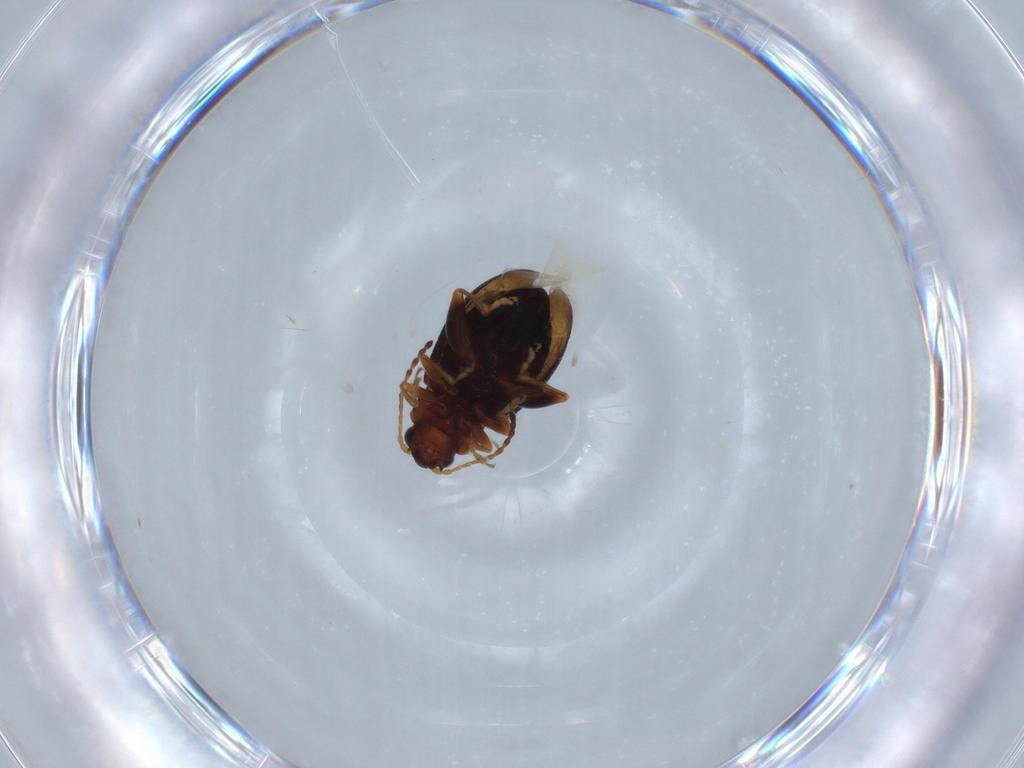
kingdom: Animalia
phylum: Arthropoda
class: Insecta
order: Coleoptera
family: Chrysomelidae
